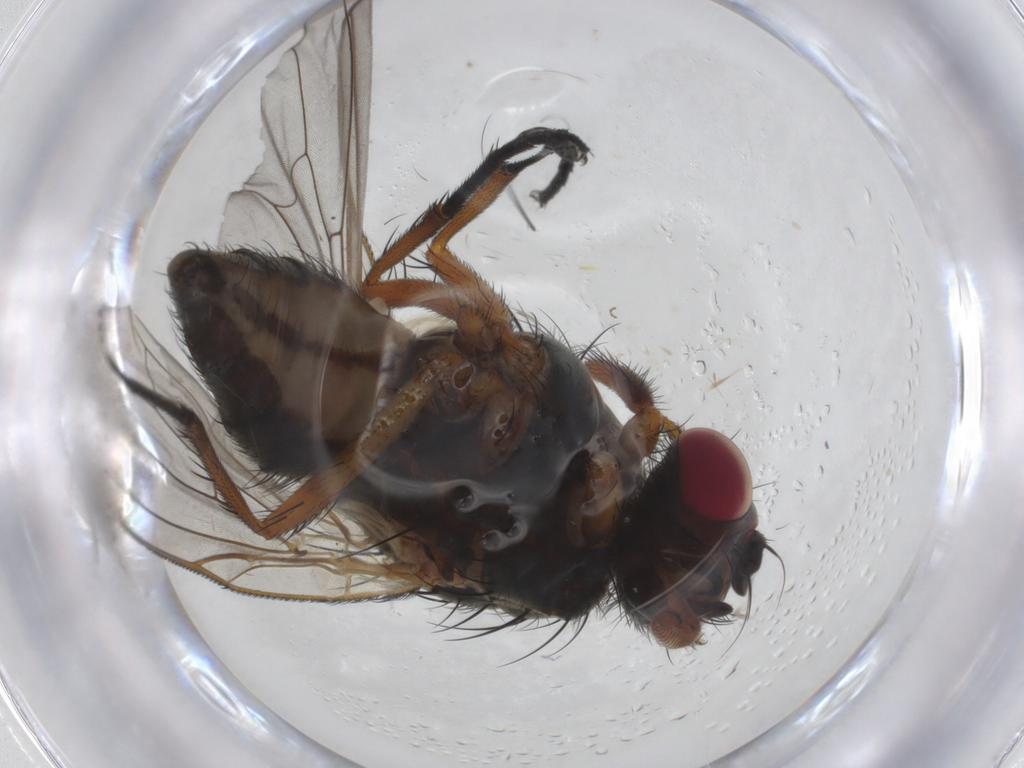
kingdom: Animalia
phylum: Arthropoda
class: Insecta
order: Diptera
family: Anthomyiidae
